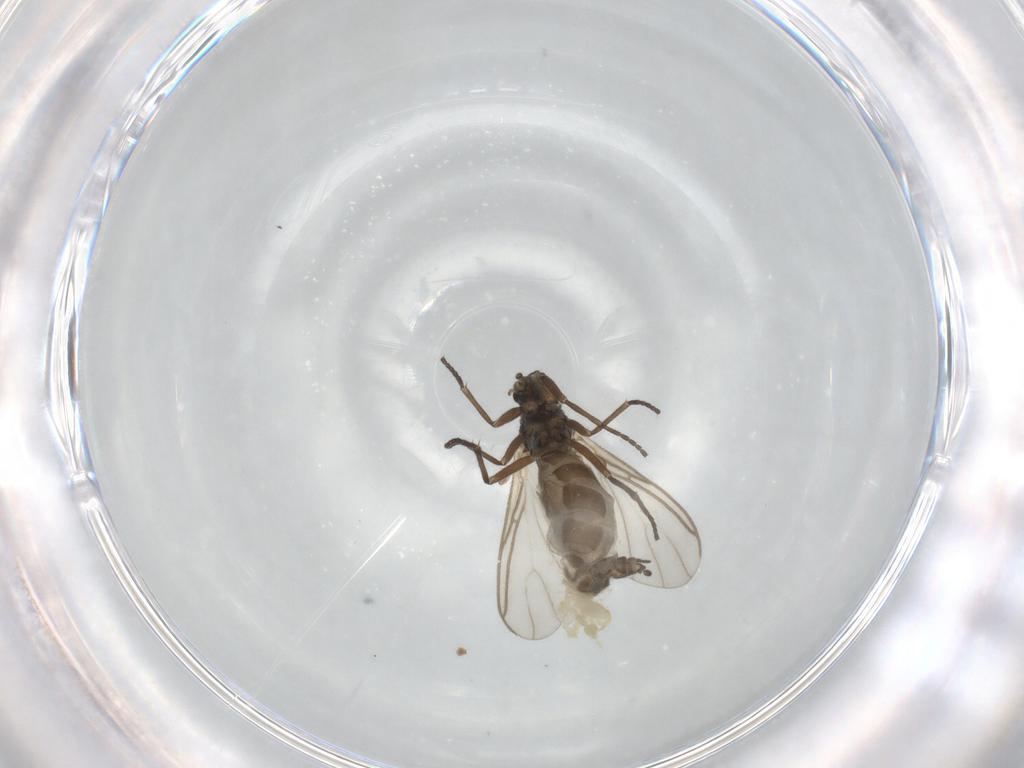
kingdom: Animalia
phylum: Arthropoda
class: Insecta
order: Diptera
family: Sciaridae
